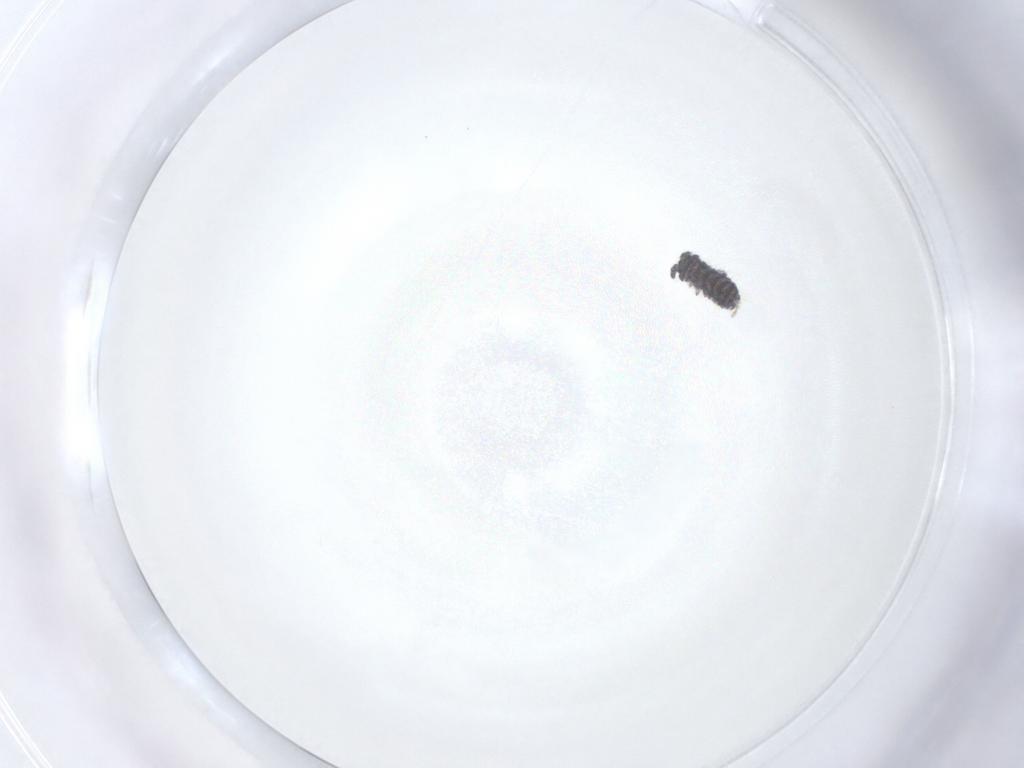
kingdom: Animalia
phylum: Arthropoda
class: Collembola
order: Poduromorpha
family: Neanuridae
